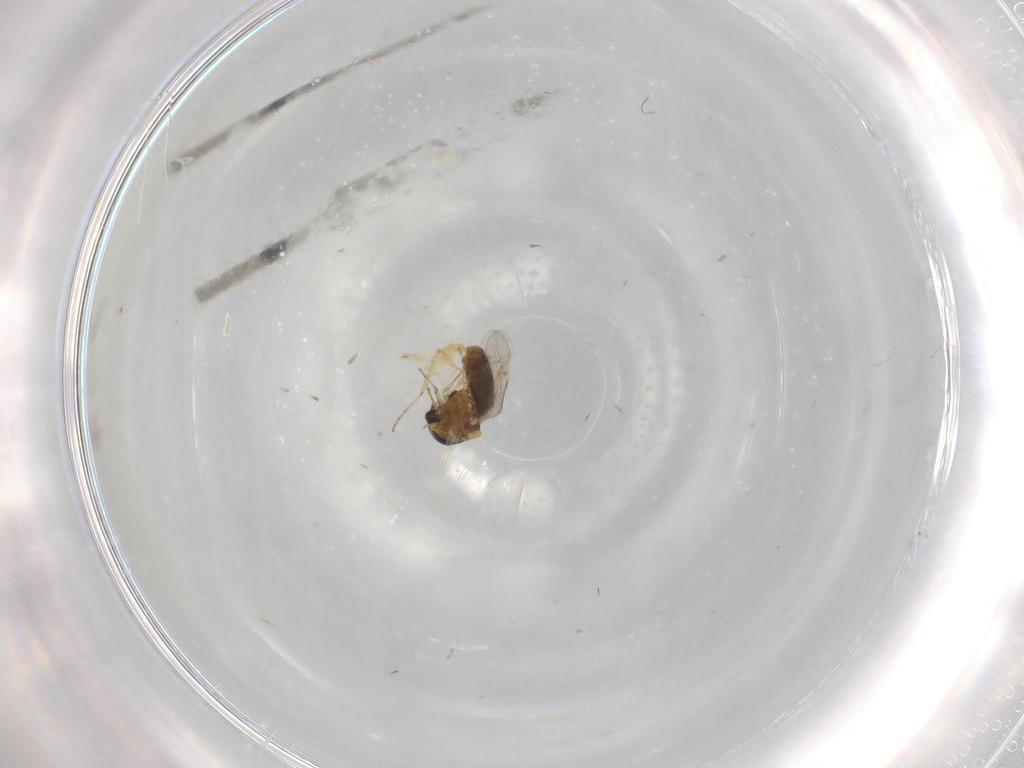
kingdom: Animalia
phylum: Arthropoda
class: Insecta
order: Diptera
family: Ceratopogonidae
